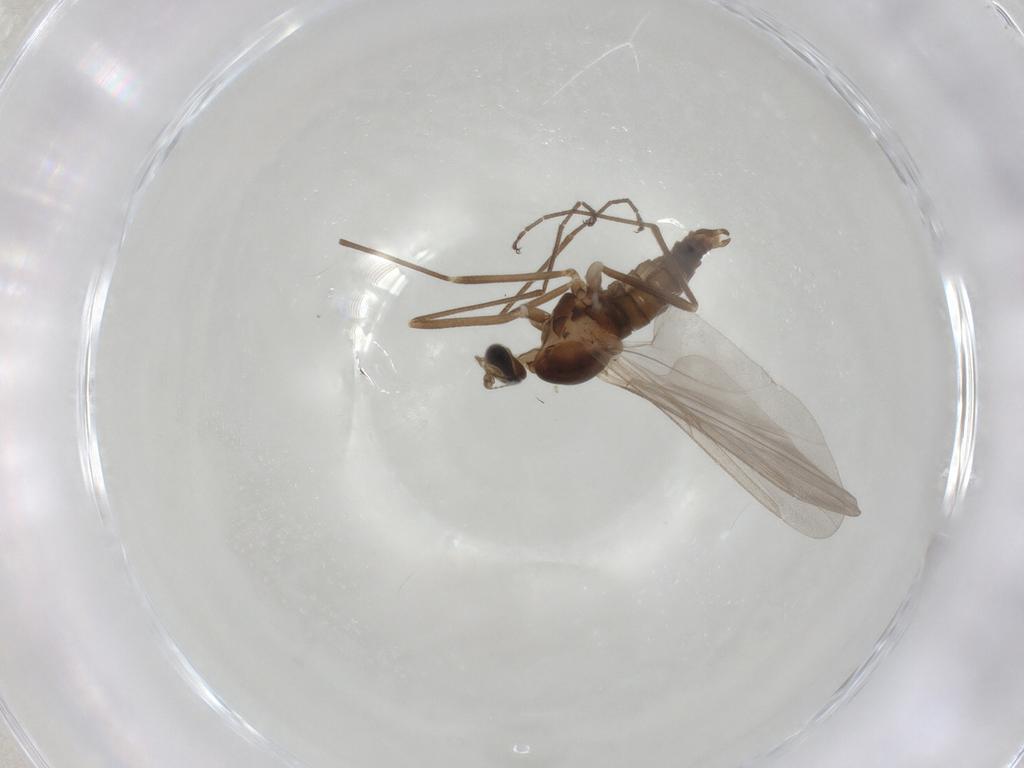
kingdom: Animalia
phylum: Arthropoda
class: Insecta
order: Diptera
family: Cecidomyiidae
